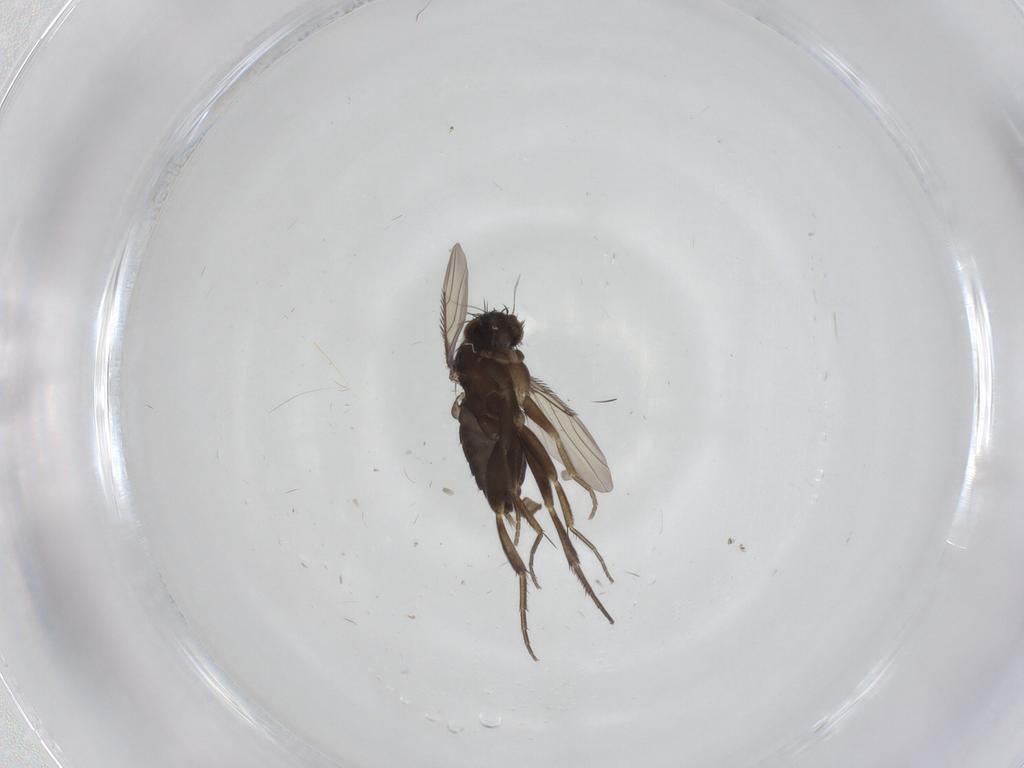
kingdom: Animalia
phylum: Arthropoda
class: Insecta
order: Diptera
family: Phoridae
